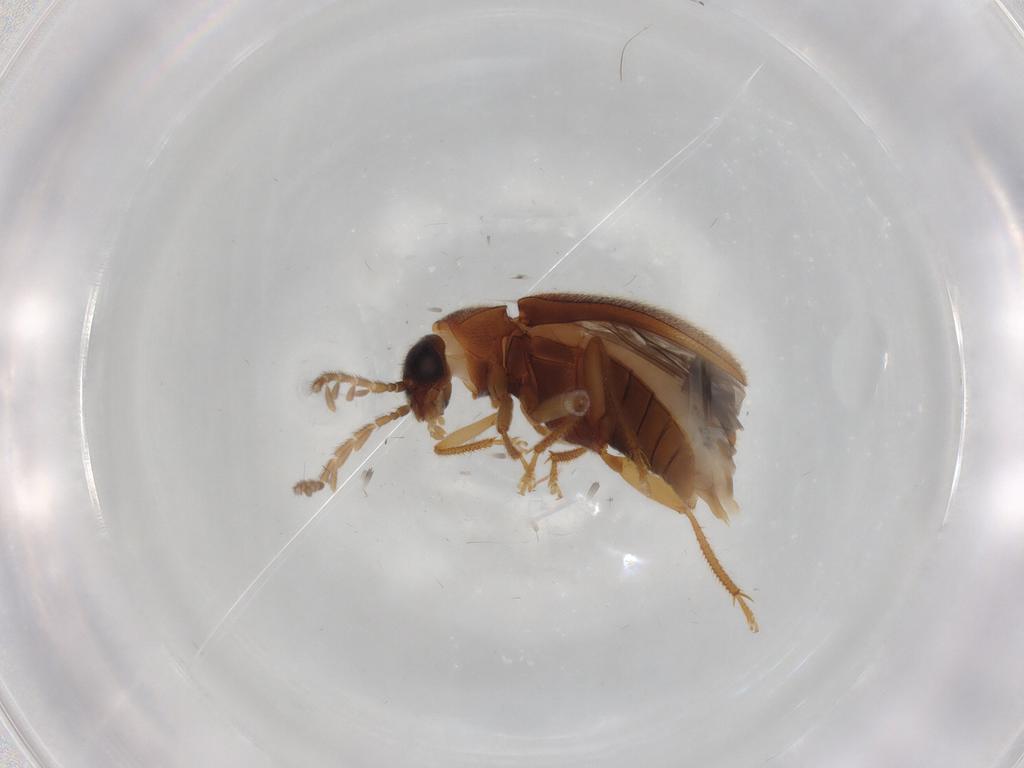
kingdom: Animalia
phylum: Arthropoda
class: Insecta
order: Coleoptera
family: Ptilodactylidae
